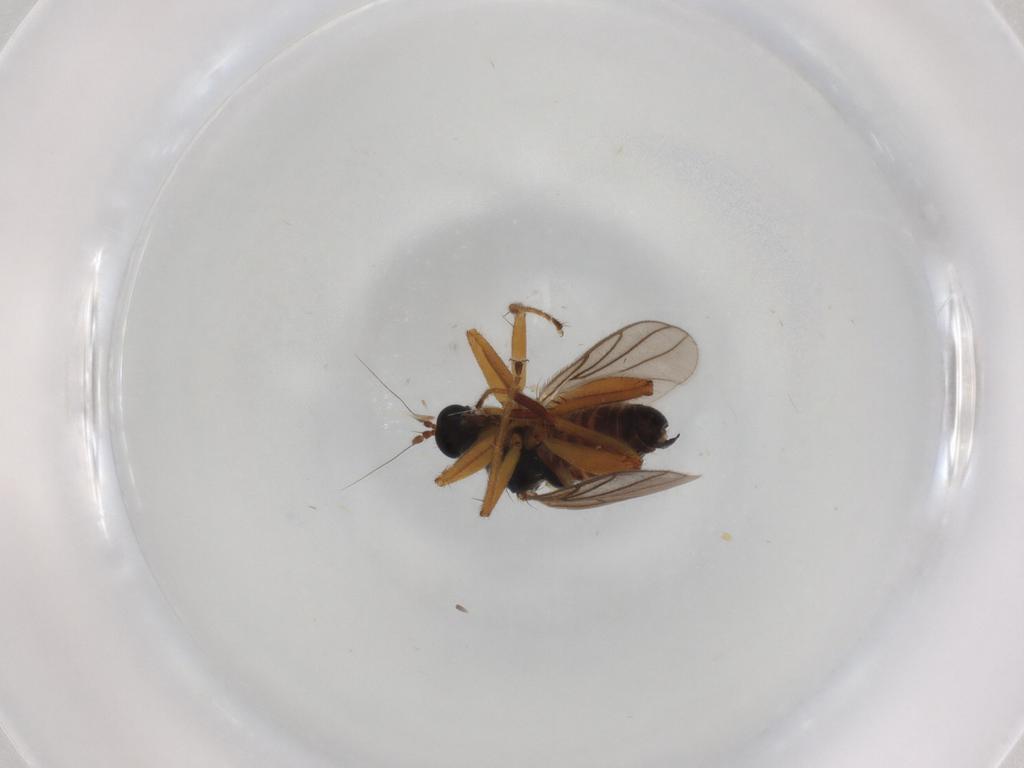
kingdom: Animalia
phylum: Arthropoda
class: Insecta
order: Diptera
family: Hybotidae
